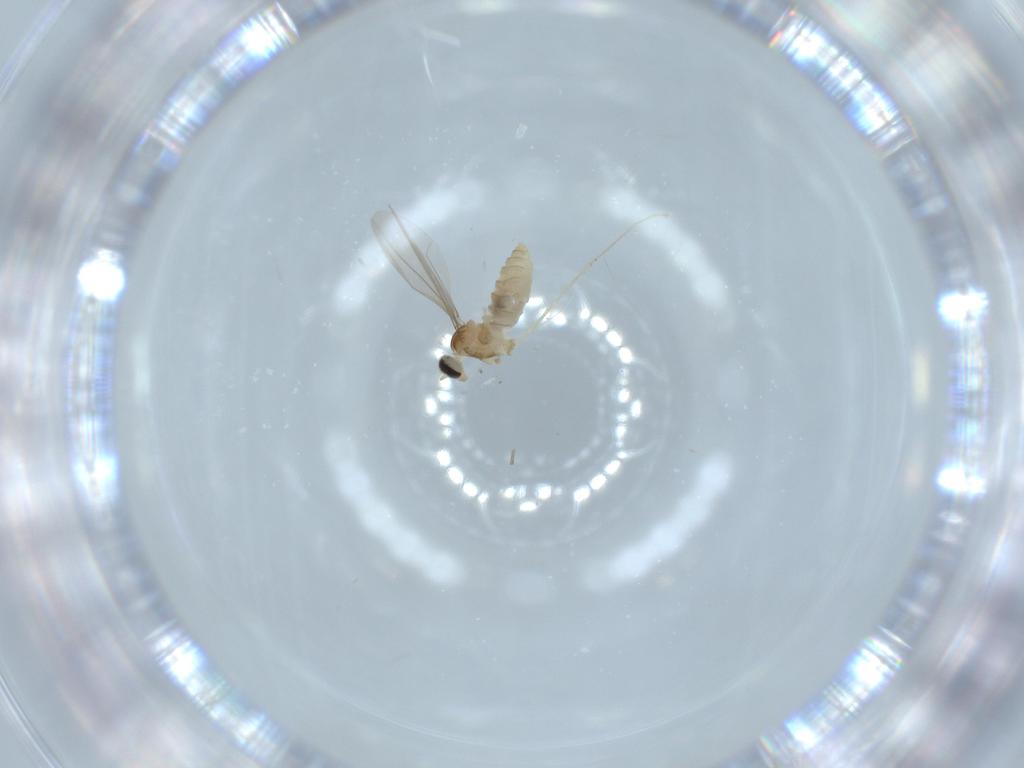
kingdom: Animalia
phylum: Arthropoda
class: Insecta
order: Diptera
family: Cecidomyiidae
